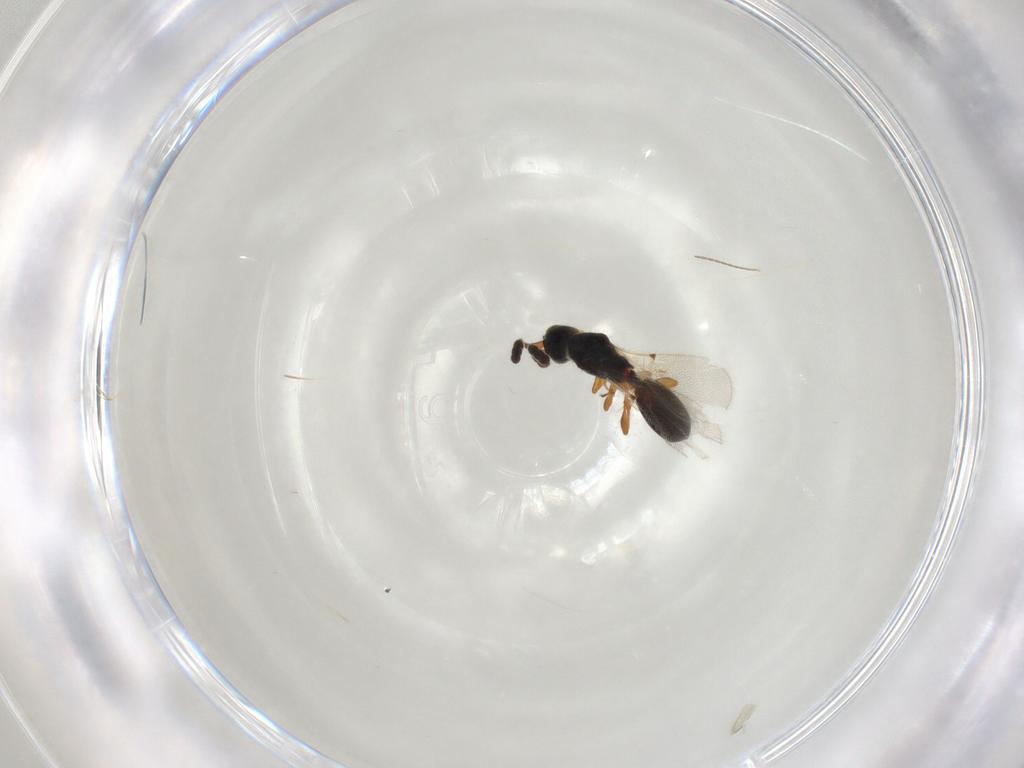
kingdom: Animalia
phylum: Arthropoda
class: Insecta
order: Hymenoptera
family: Diapriidae
